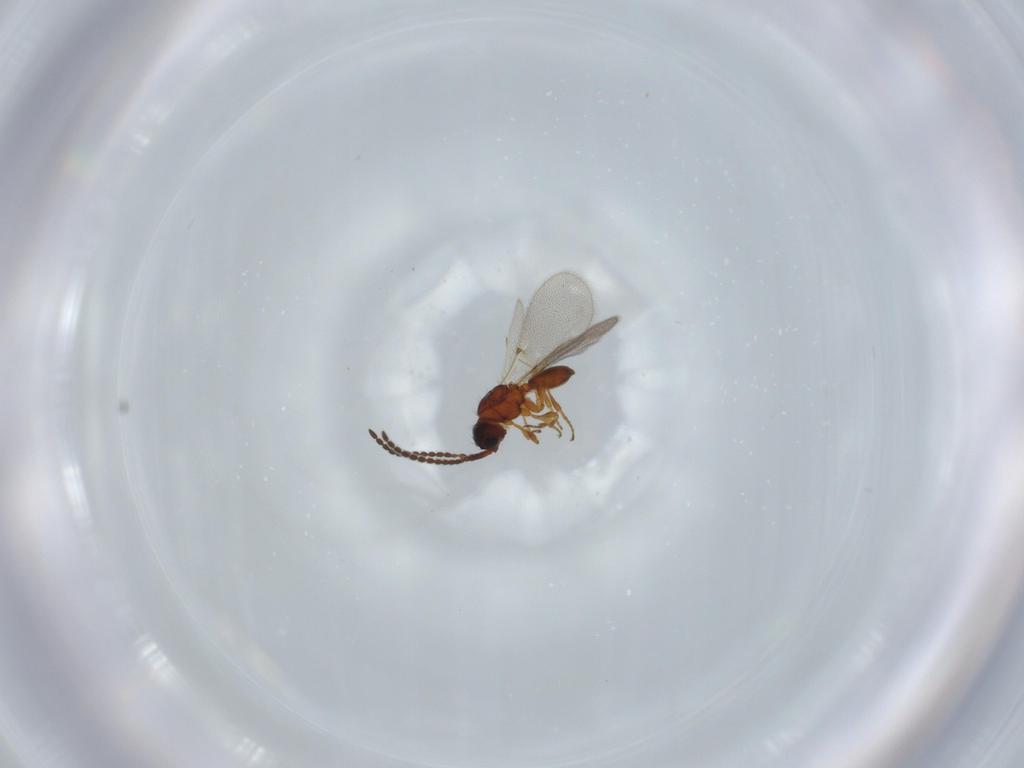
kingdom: Animalia
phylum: Arthropoda
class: Insecta
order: Hymenoptera
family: Diapriidae
